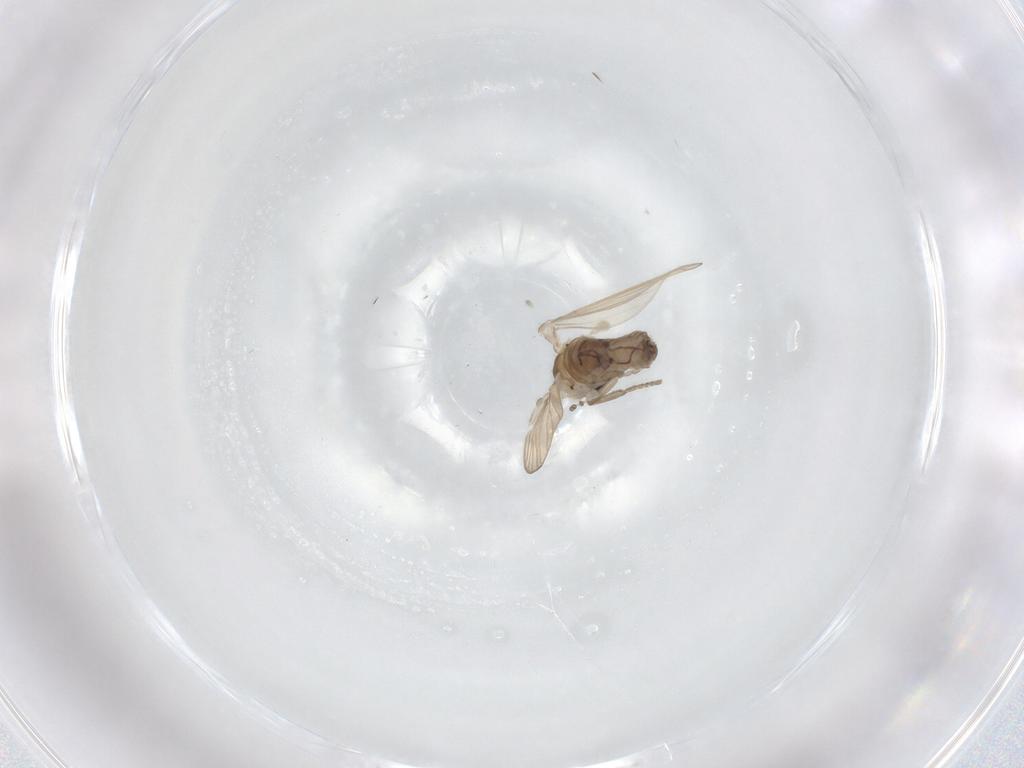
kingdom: Animalia
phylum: Arthropoda
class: Insecta
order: Diptera
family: Psychodidae
